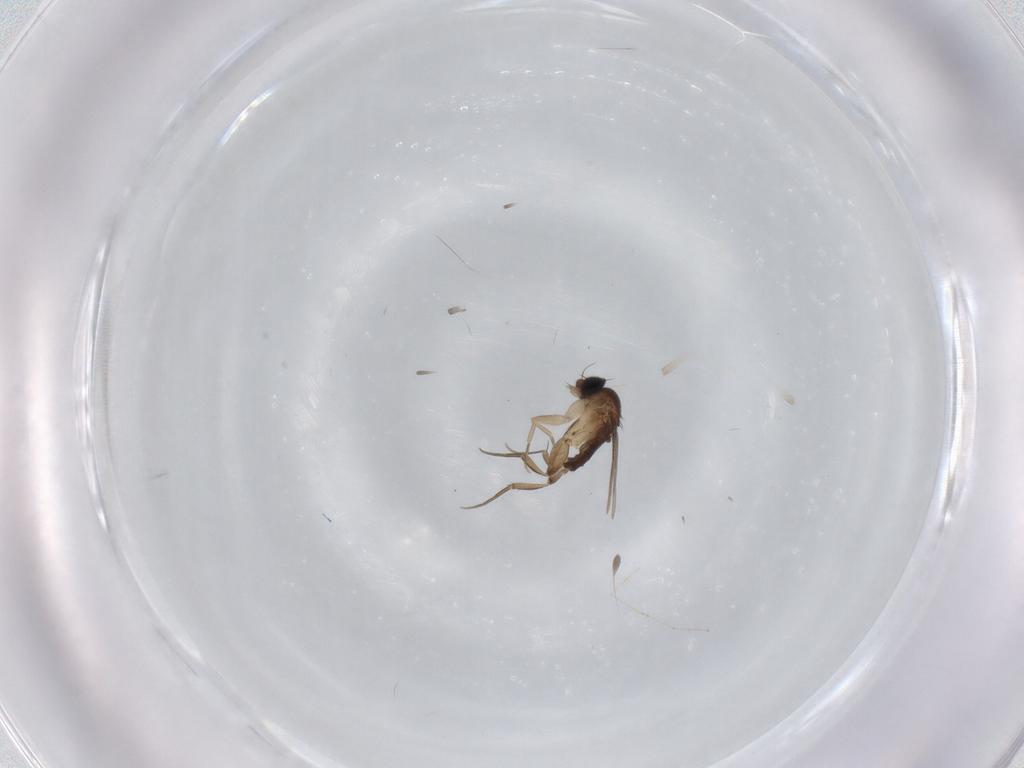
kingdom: Animalia
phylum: Arthropoda
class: Insecta
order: Diptera
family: Phoridae
